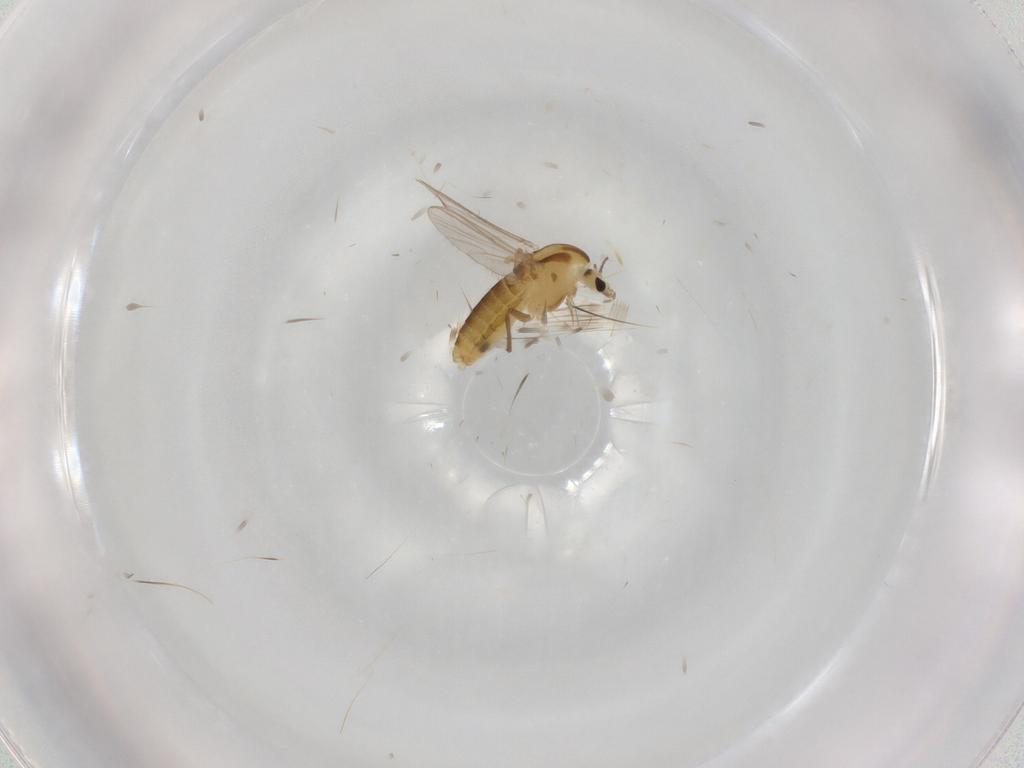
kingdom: Animalia
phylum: Arthropoda
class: Insecta
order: Diptera
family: Chironomidae
